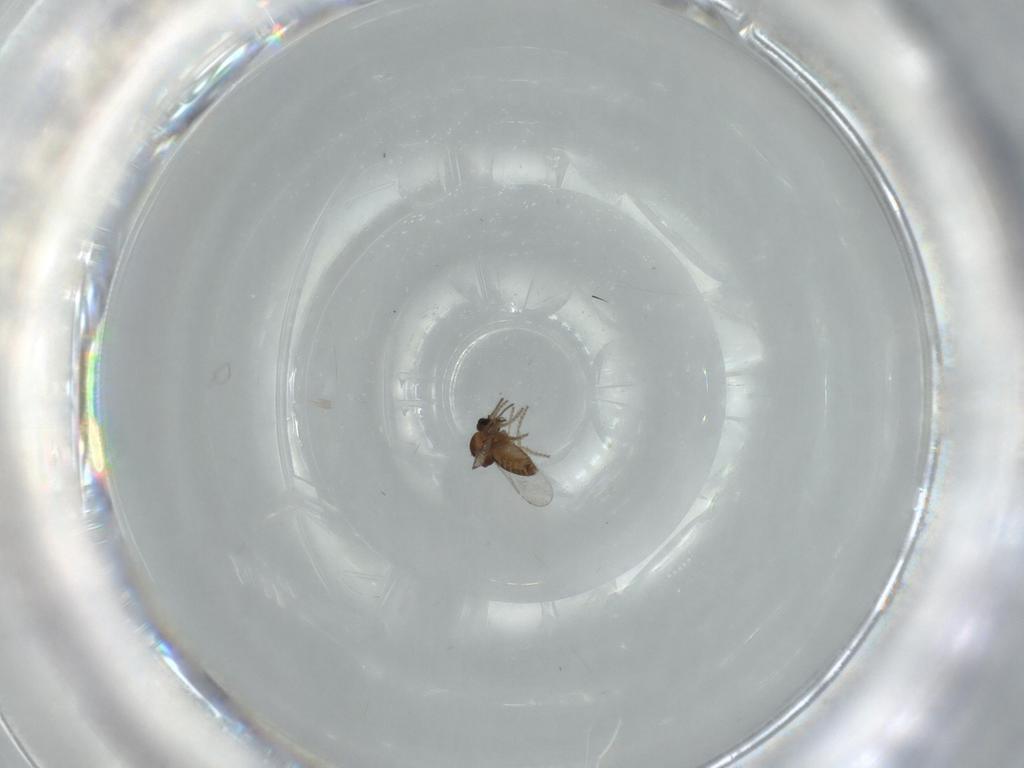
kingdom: Animalia
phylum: Arthropoda
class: Insecta
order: Diptera
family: Ceratopogonidae
